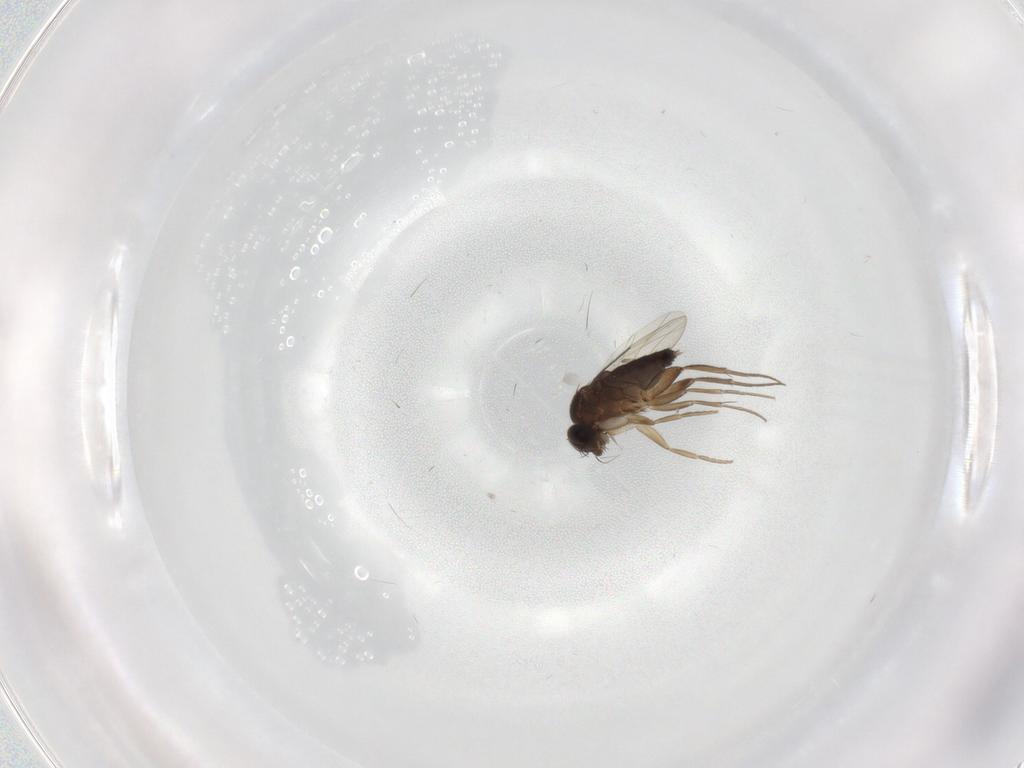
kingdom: Animalia
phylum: Arthropoda
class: Insecta
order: Diptera
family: Phoridae
